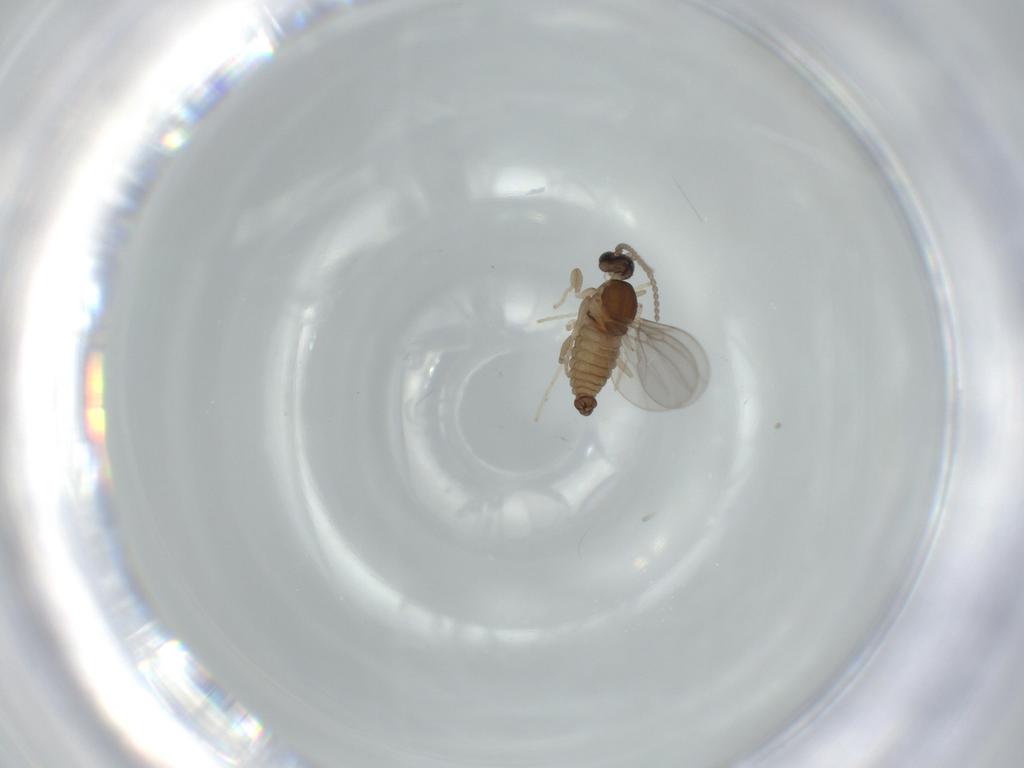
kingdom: Animalia
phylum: Arthropoda
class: Insecta
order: Diptera
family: Cecidomyiidae
